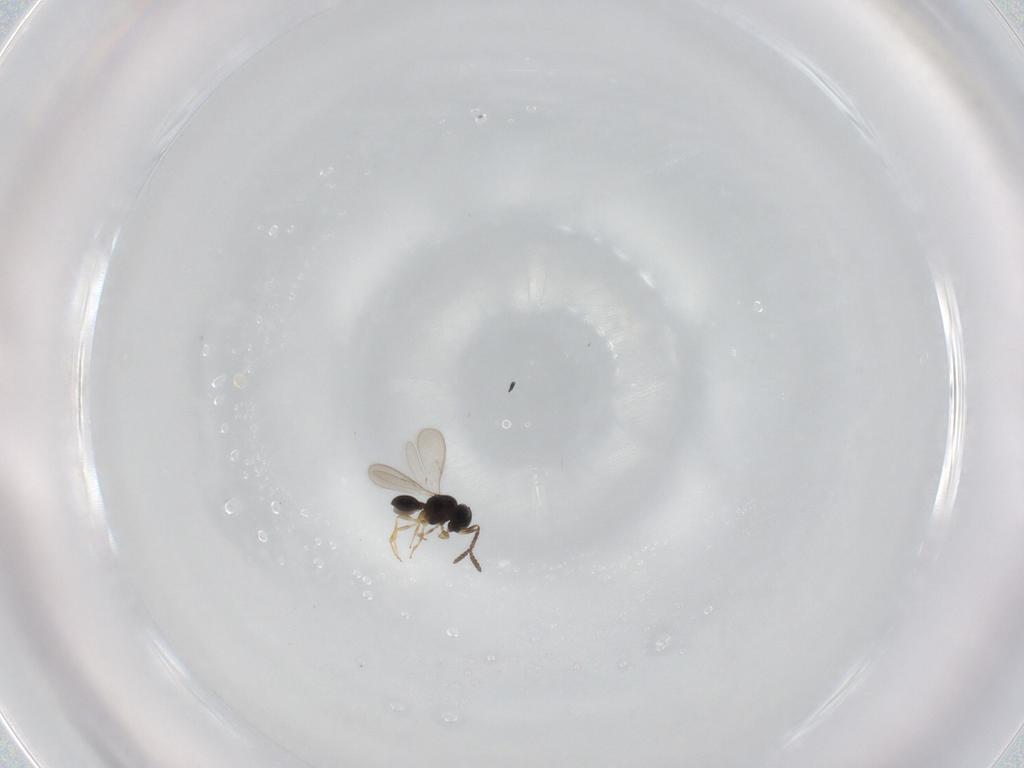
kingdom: Animalia
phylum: Arthropoda
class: Insecta
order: Hymenoptera
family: Scelionidae
